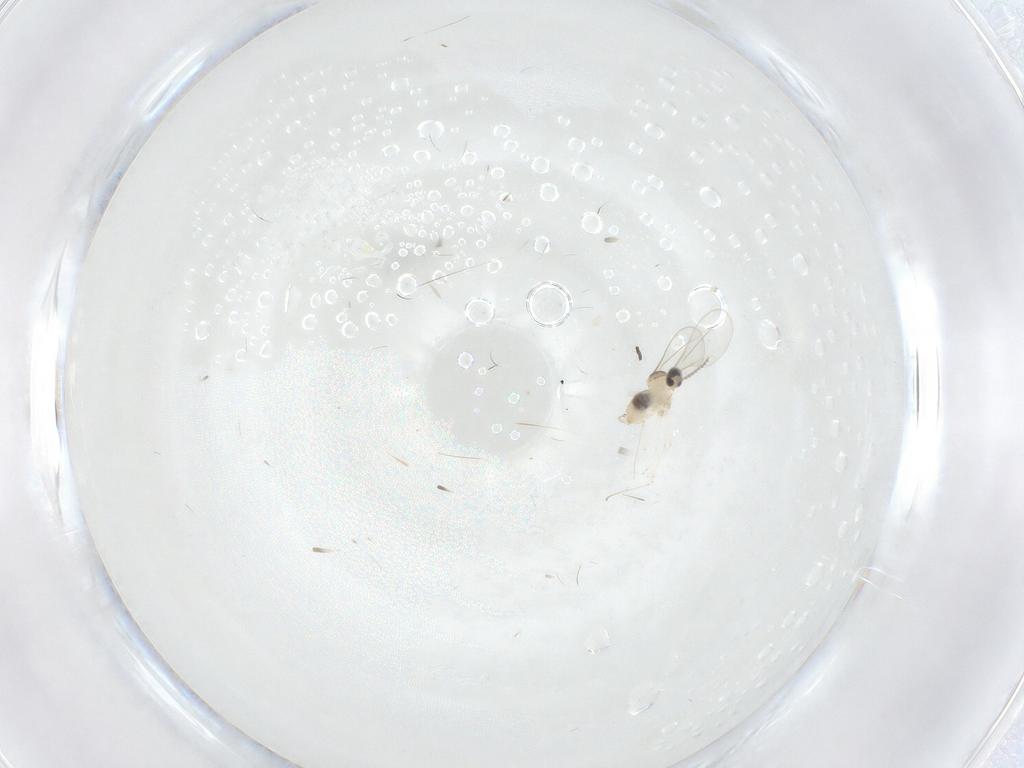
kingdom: Animalia
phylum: Arthropoda
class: Insecta
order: Diptera
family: Cecidomyiidae
